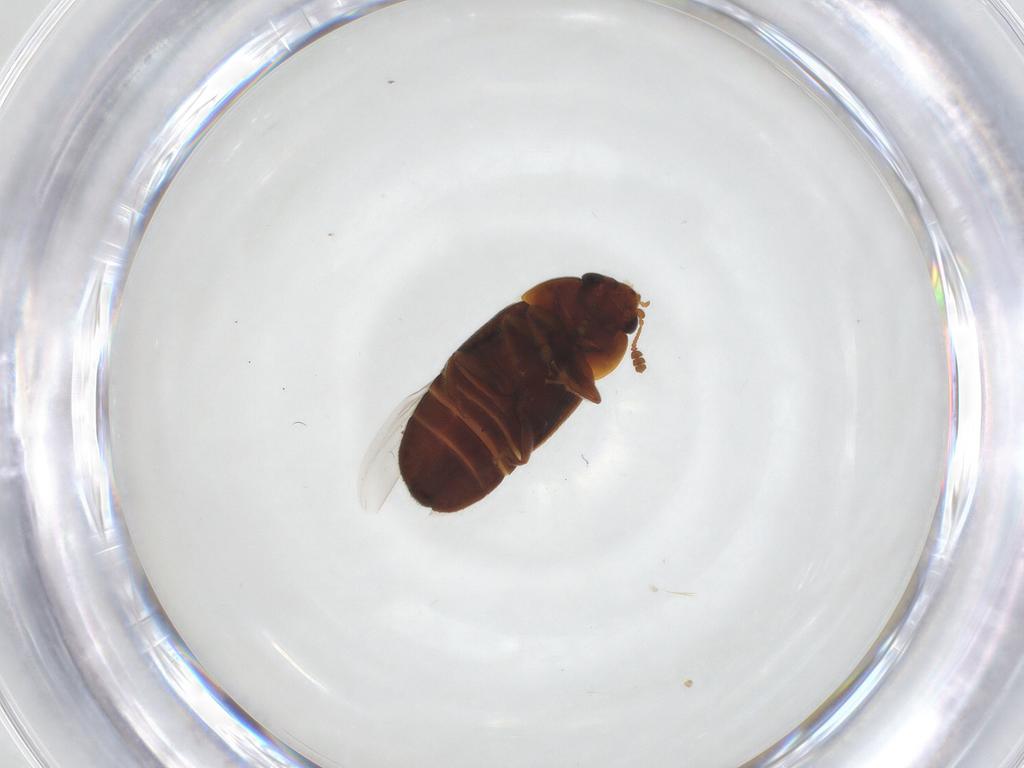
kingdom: Animalia
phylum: Arthropoda
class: Insecta
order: Coleoptera
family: Nitidulidae
